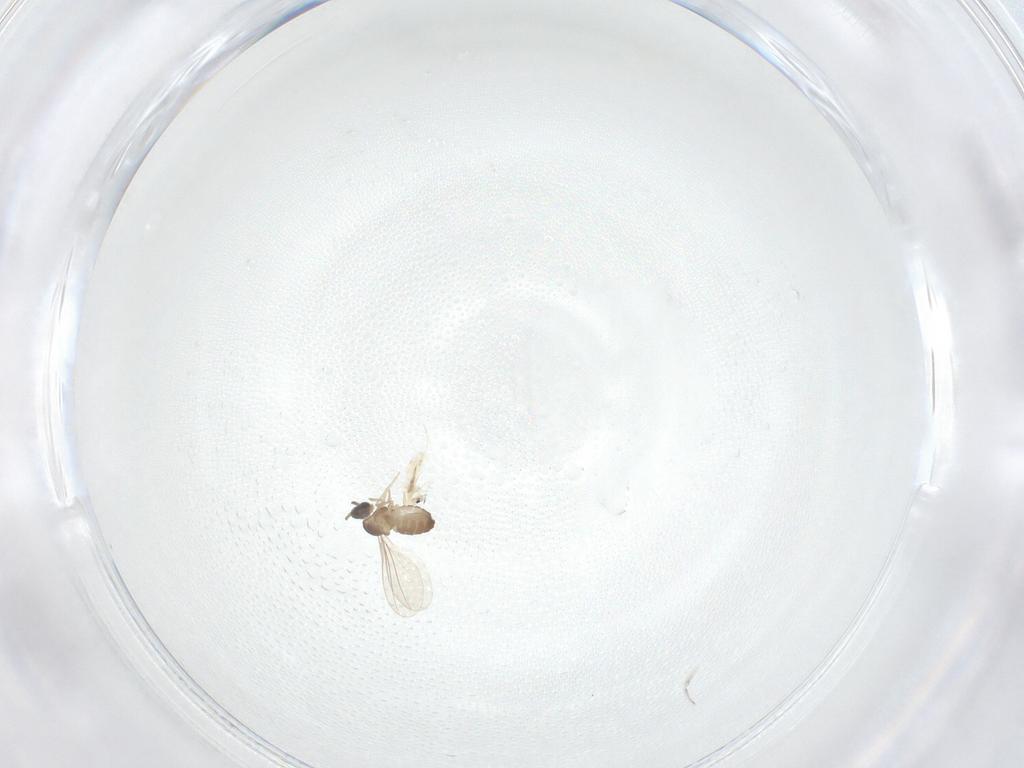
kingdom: Animalia
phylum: Arthropoda
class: Insecta
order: Diptera
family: Cecidomyiidae
